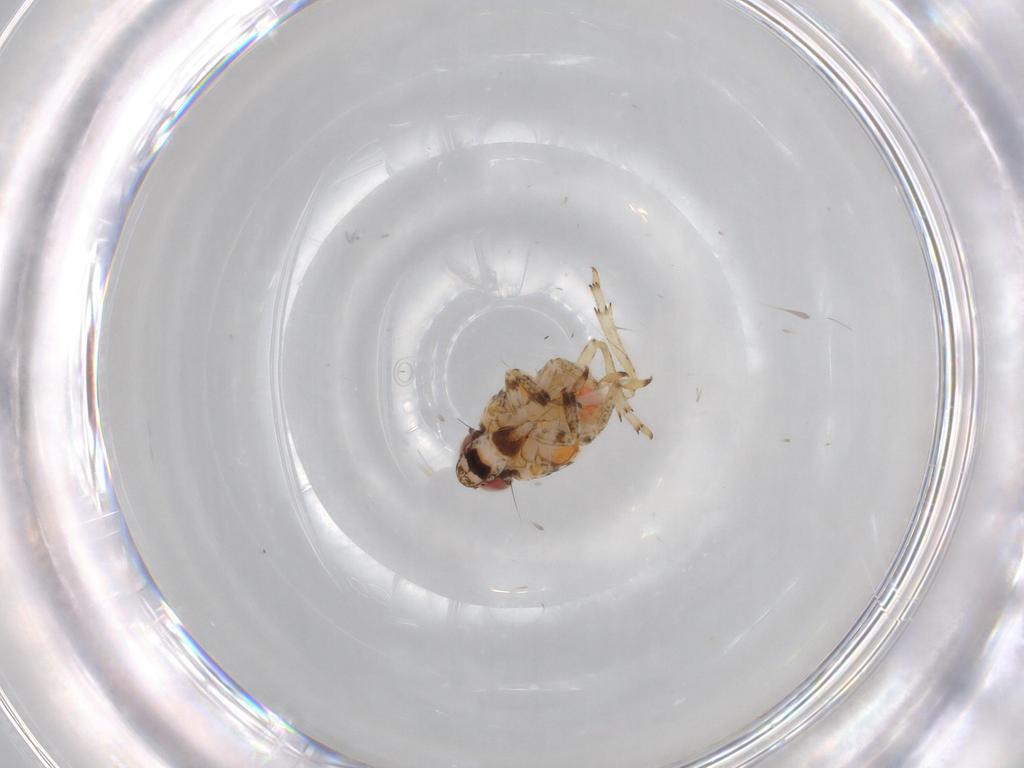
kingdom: Animalia
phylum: Arthropoda
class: Insecta
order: Hemiptera
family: Issidae
